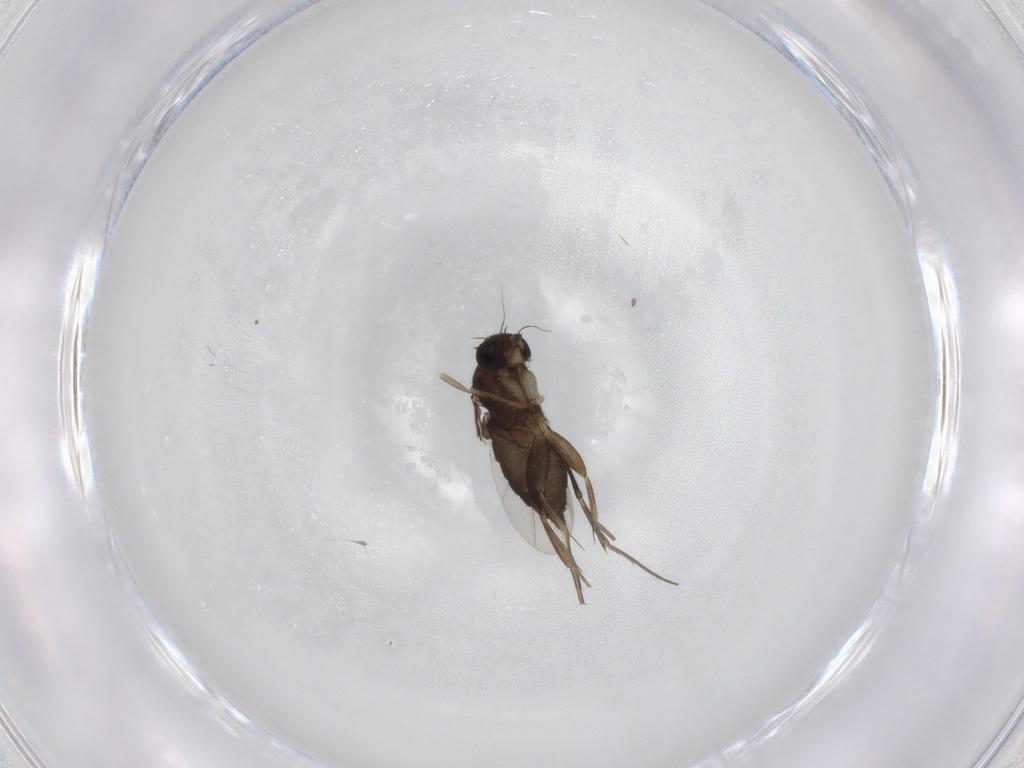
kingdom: Animalia
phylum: Arthropoda
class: Insecta
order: Diptera
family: Phoridae
